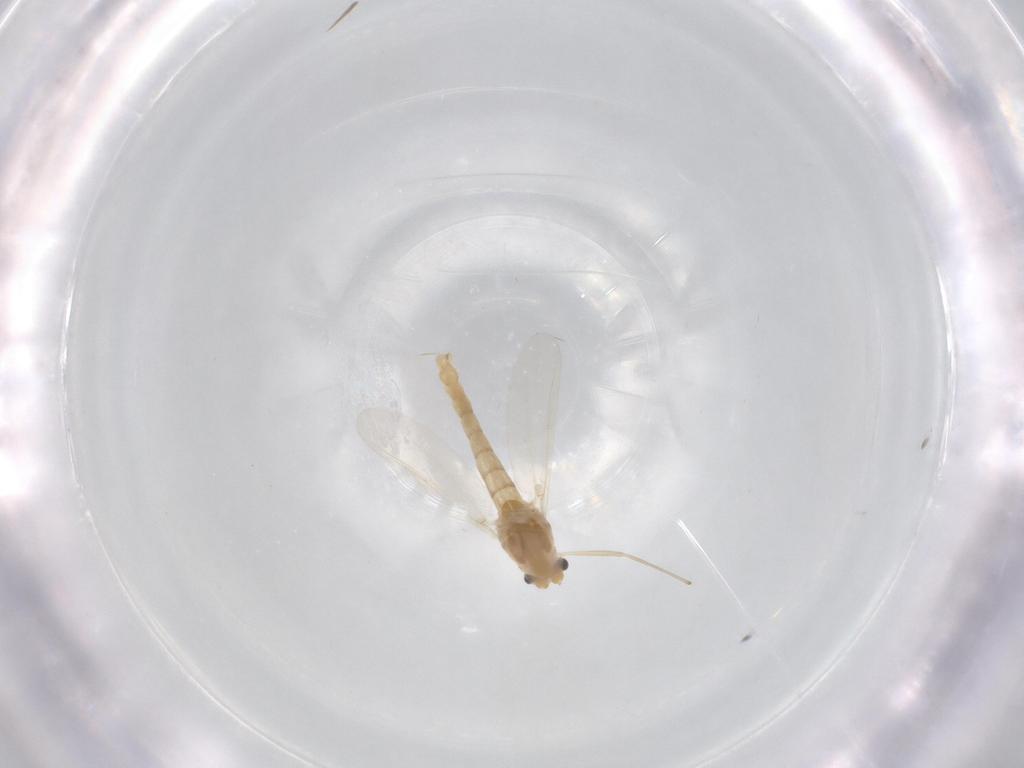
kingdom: Animalia
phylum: Arthropoda
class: Insecta
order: Diptera
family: Chironomidae
